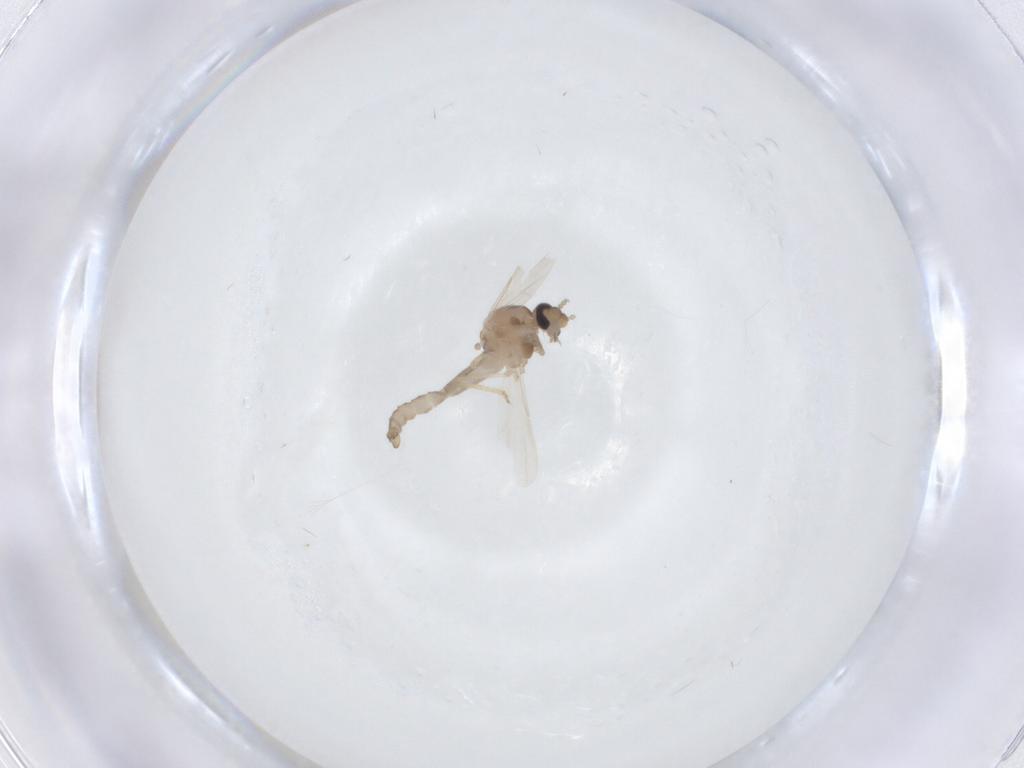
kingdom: Animalia
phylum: Arthropoda
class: Insecta
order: Diptera
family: Ceratopogonidae
